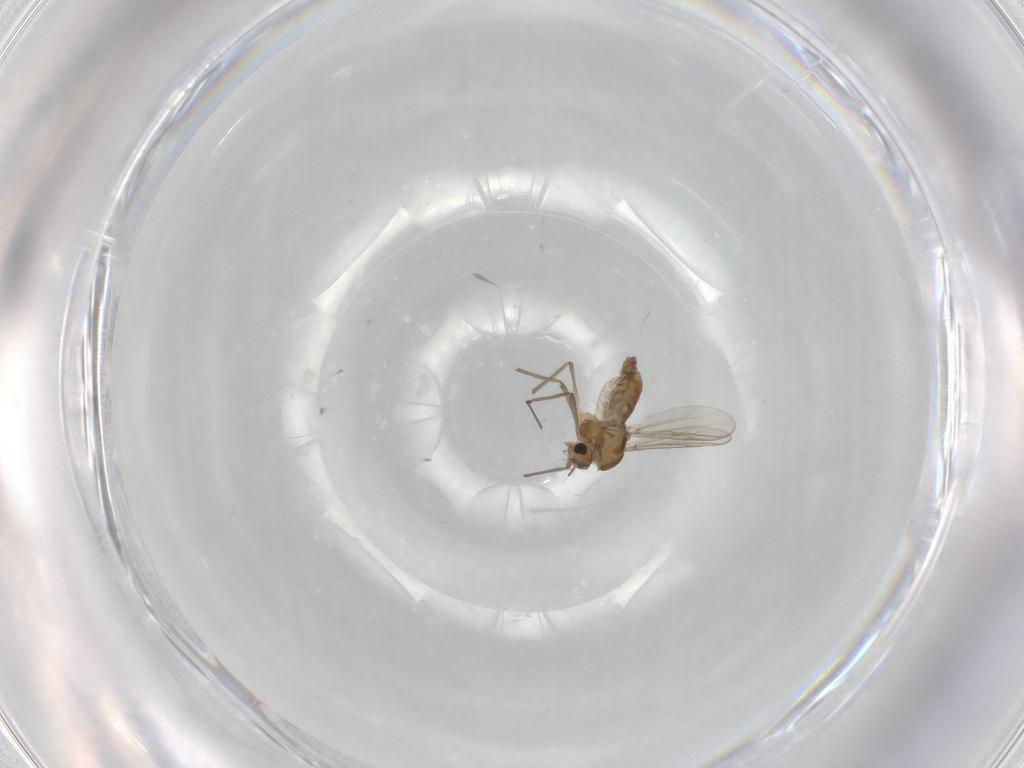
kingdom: Animalia
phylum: Arthropoda
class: Insecta
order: Diptera
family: Chironomidae
